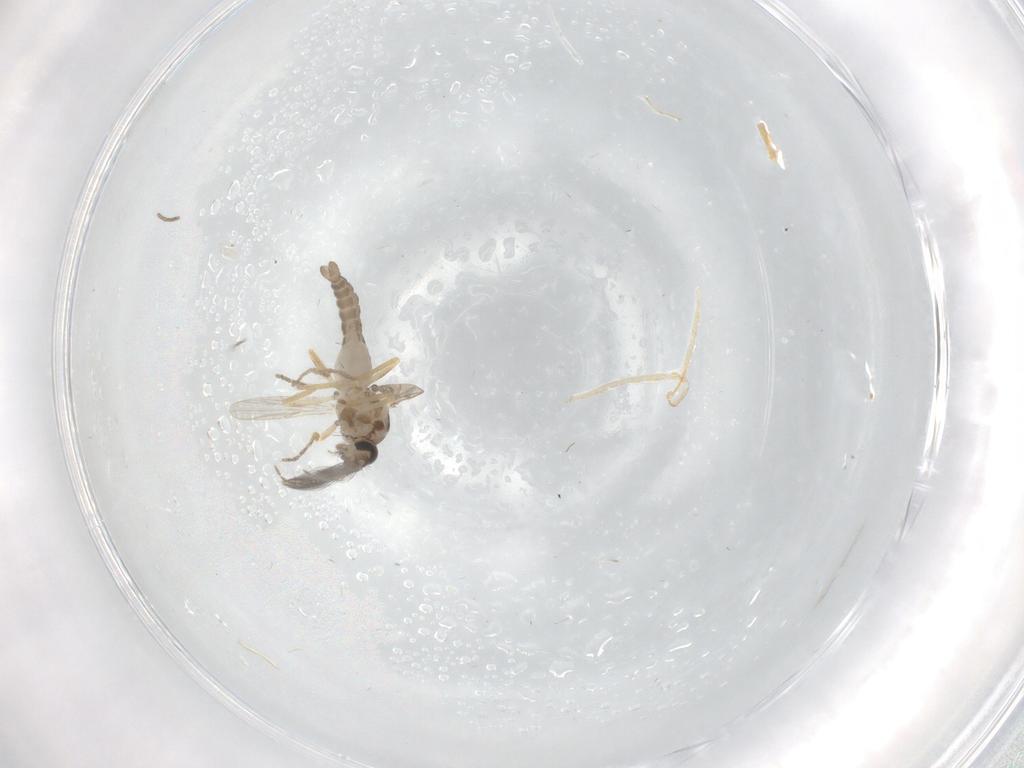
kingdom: Animalia
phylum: Arthropoda
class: Insecta
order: Diptera
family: Ceratopogonidae
